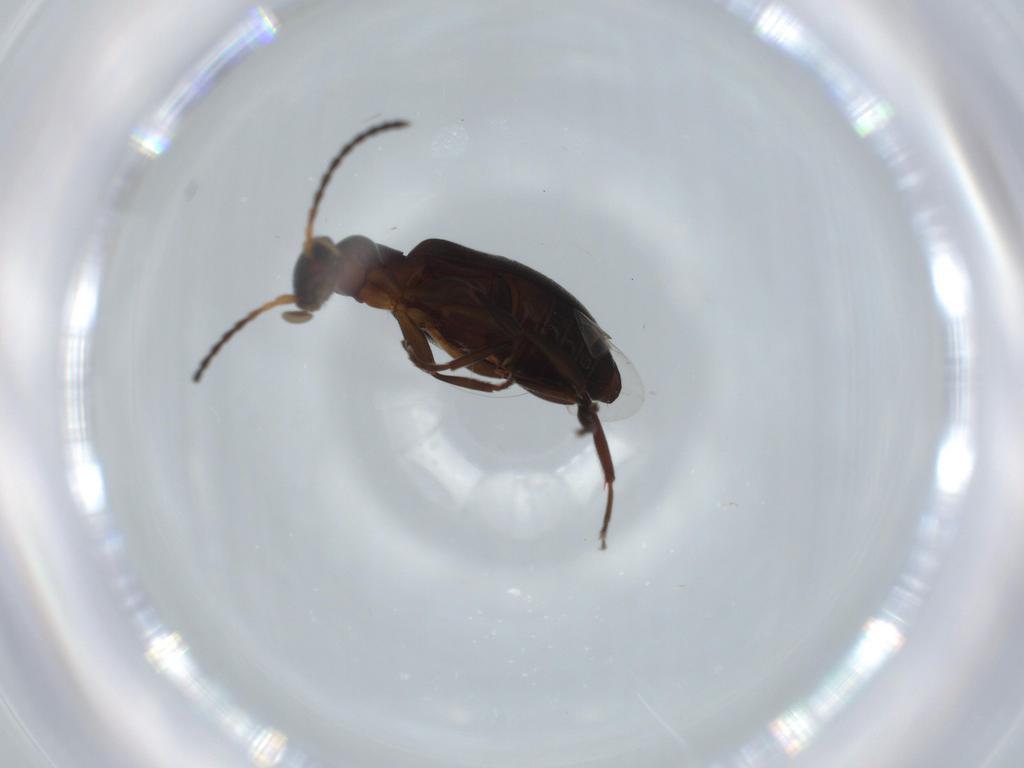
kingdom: Animalia
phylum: Arthropoda
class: Insecta
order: Coleoptera
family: Anthicidae
